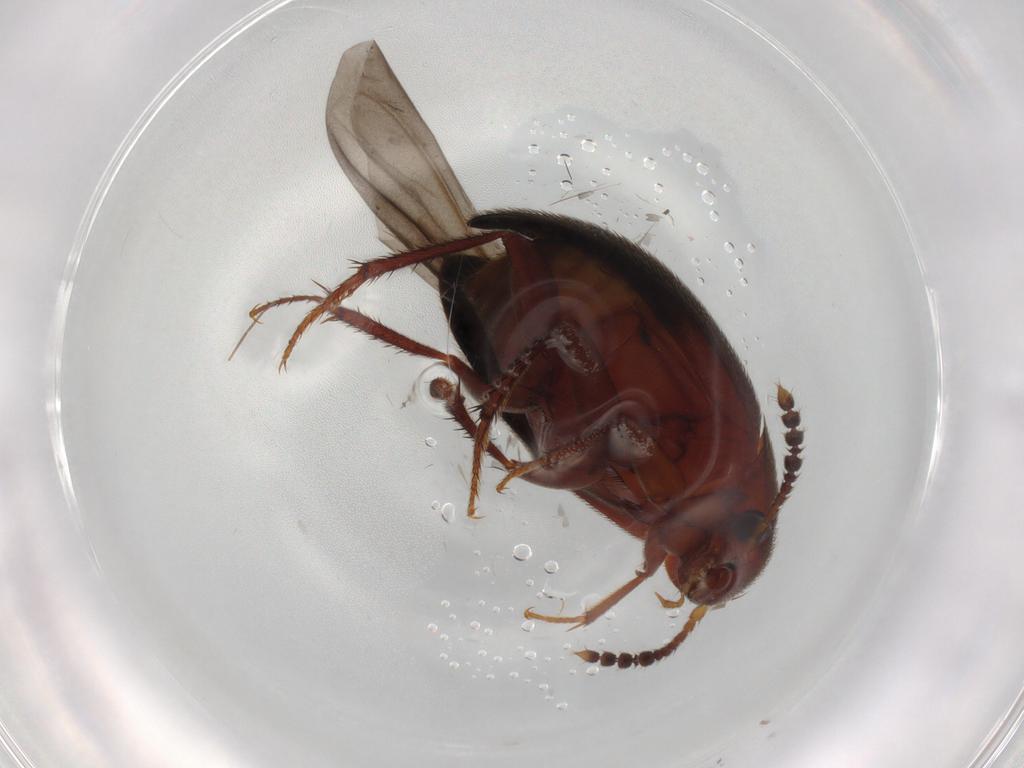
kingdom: Animalia
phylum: Arthropoda
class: Insecta
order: Coleoptera
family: Leiodidae
